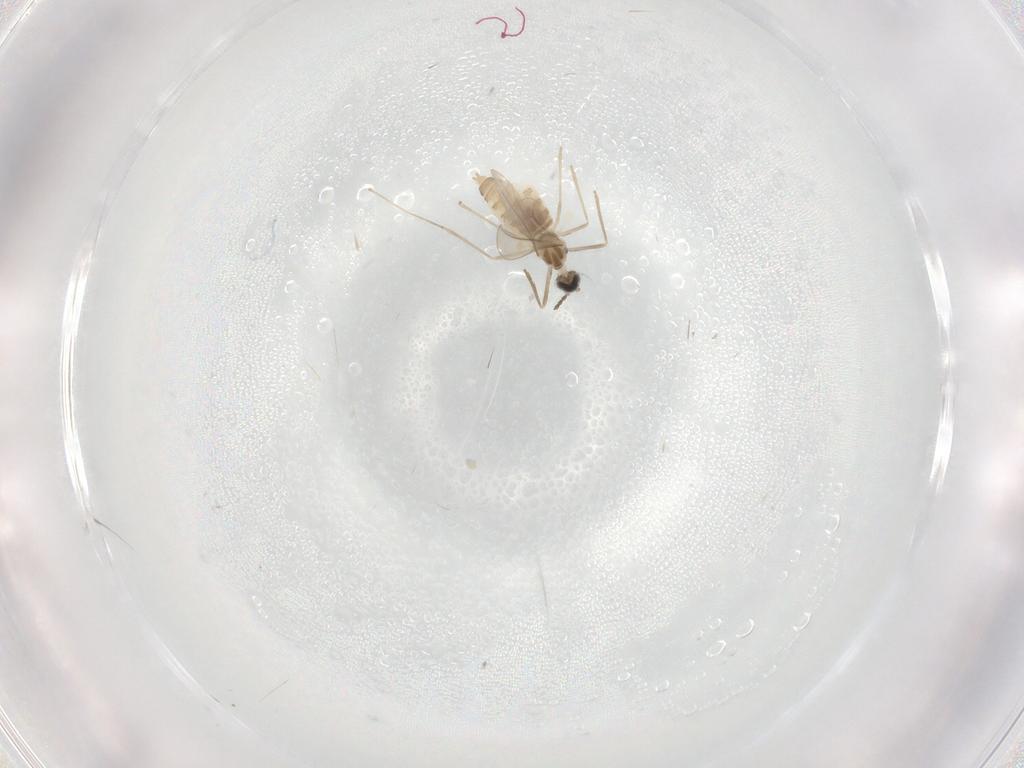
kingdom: Animalia
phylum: Arthropoda
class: Insecta
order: Diptera
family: Cecidomyiidae
